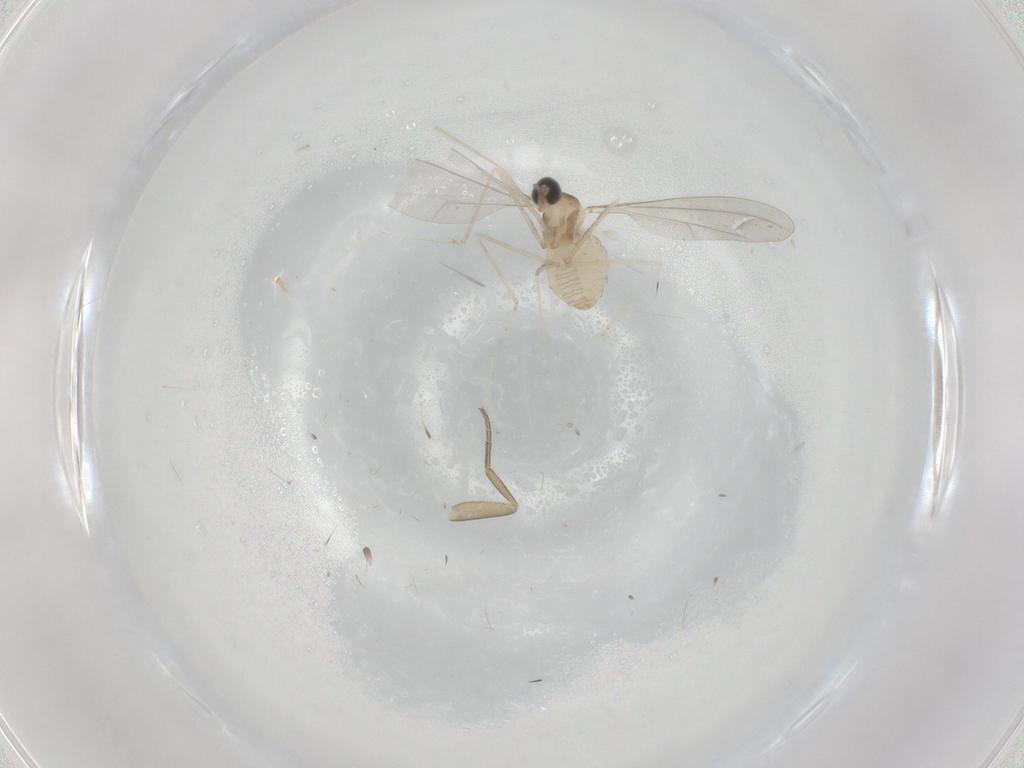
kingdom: Animalia
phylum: Arthropoda
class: Insecta
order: Diptera
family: Cecidomyiidae
